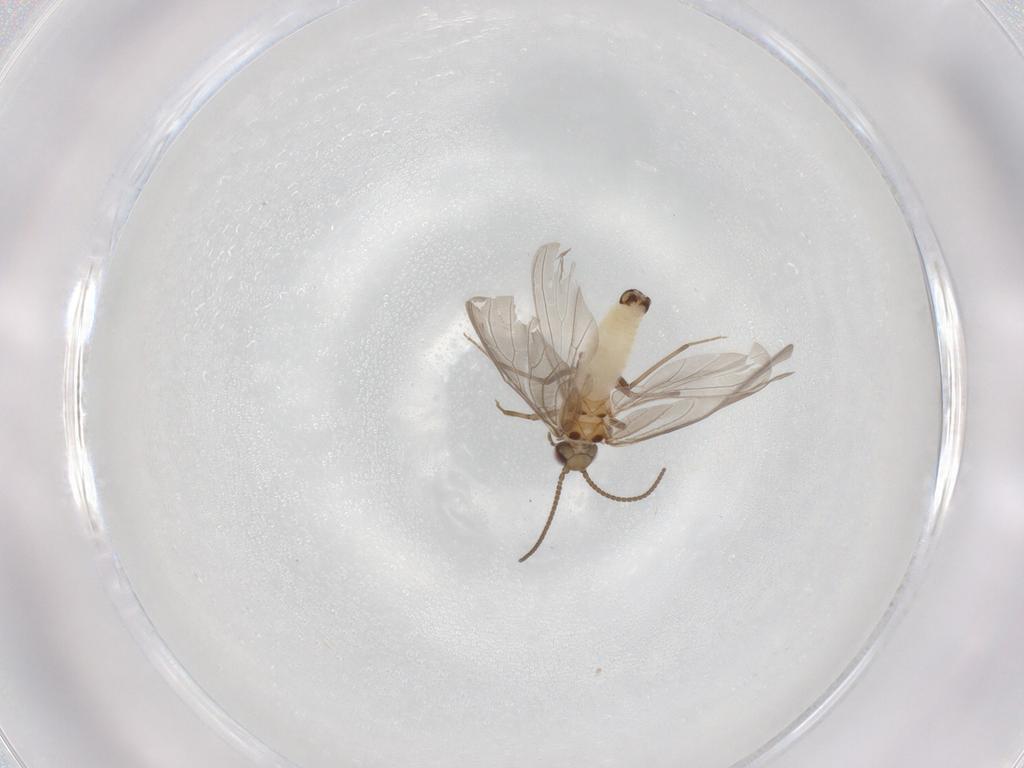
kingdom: Animalia
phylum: Arthropoda
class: Insecta
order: Neuroptera
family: Coniopterygidae
